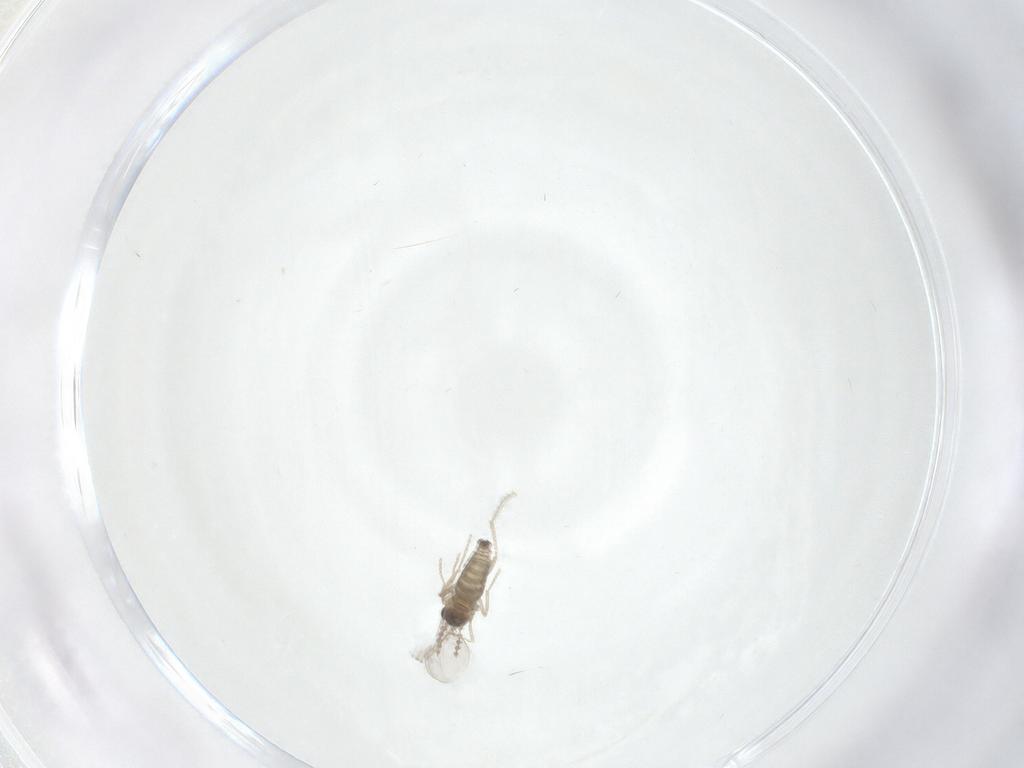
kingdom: Animalia
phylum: Arthropoda
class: Insecta
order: Diptera
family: Cecidomyiidae
